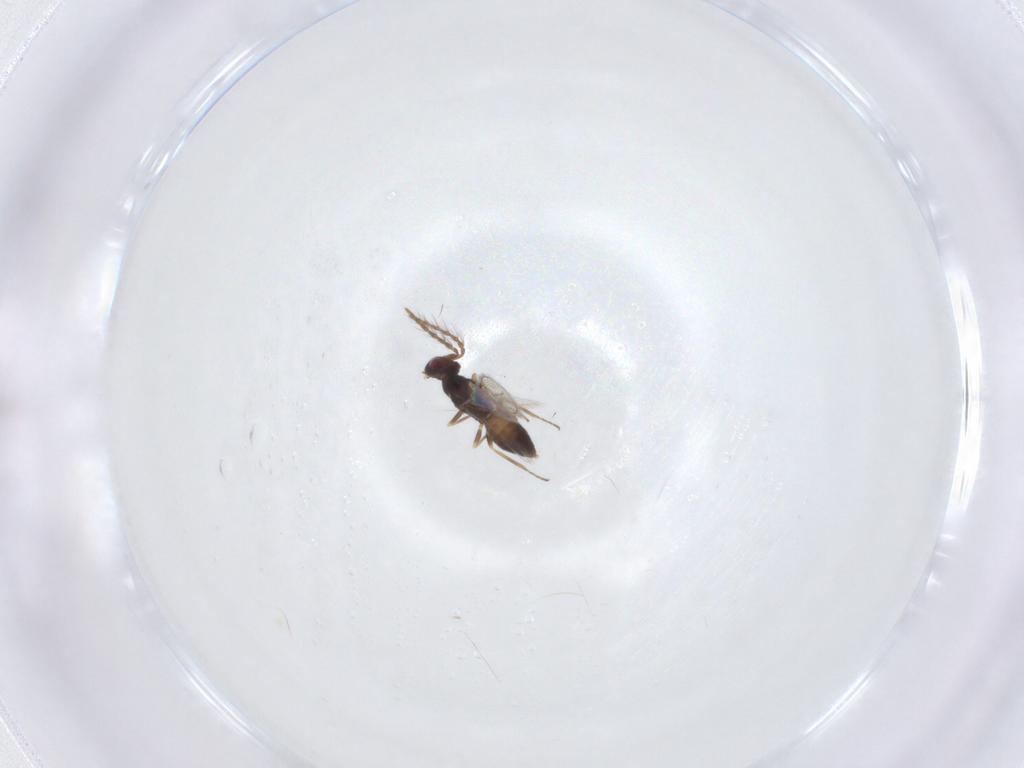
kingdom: Animalia
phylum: Arthropoda
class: Insecta
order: Hymenoptera
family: Eulophidae
